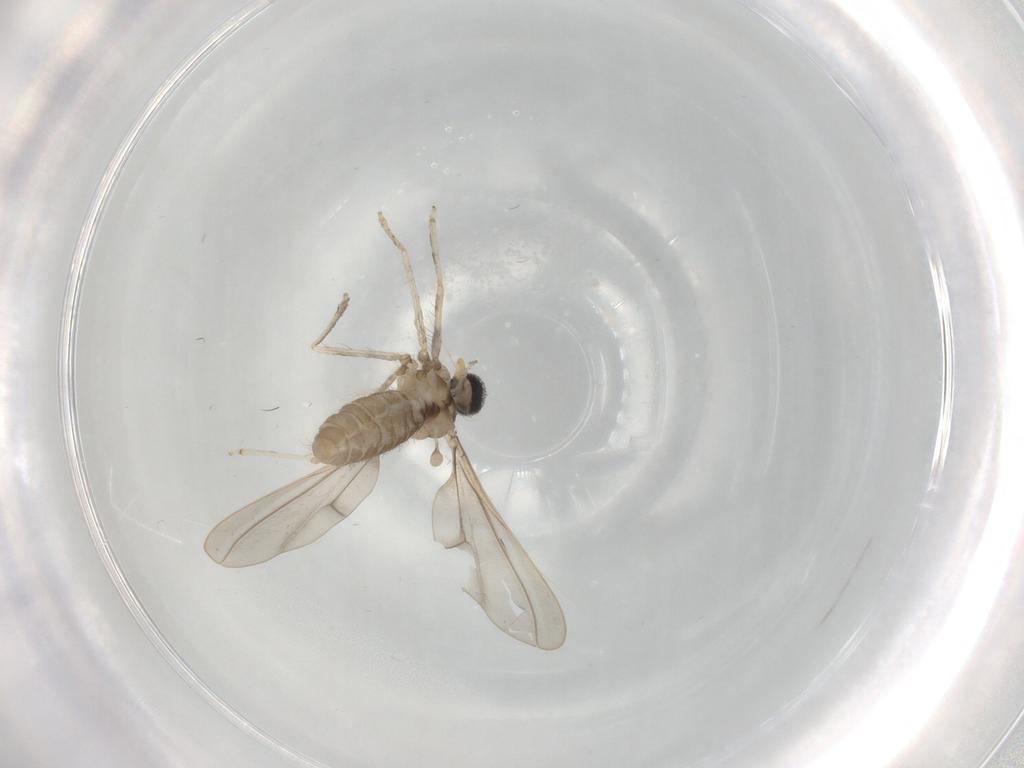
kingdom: Animalia
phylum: Arthropoda
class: Insecta
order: Diptera
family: Cecidomyiidae
